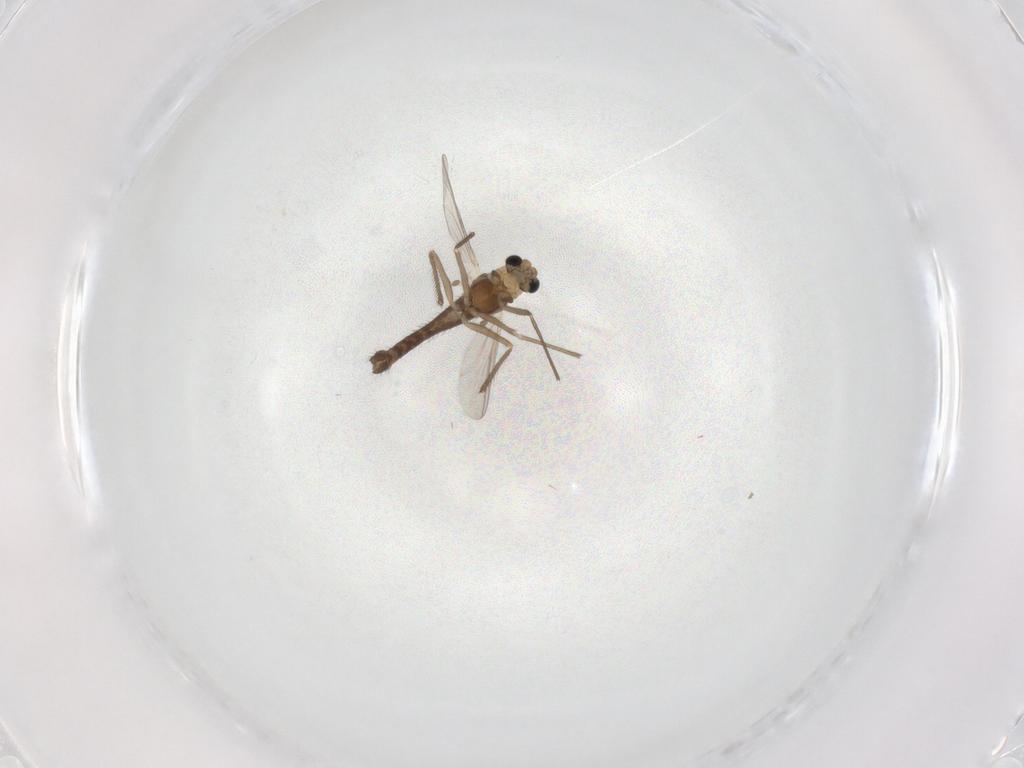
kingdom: Animalia
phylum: Arthropoda
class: Insecta
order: Diptera
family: Chironomidae
